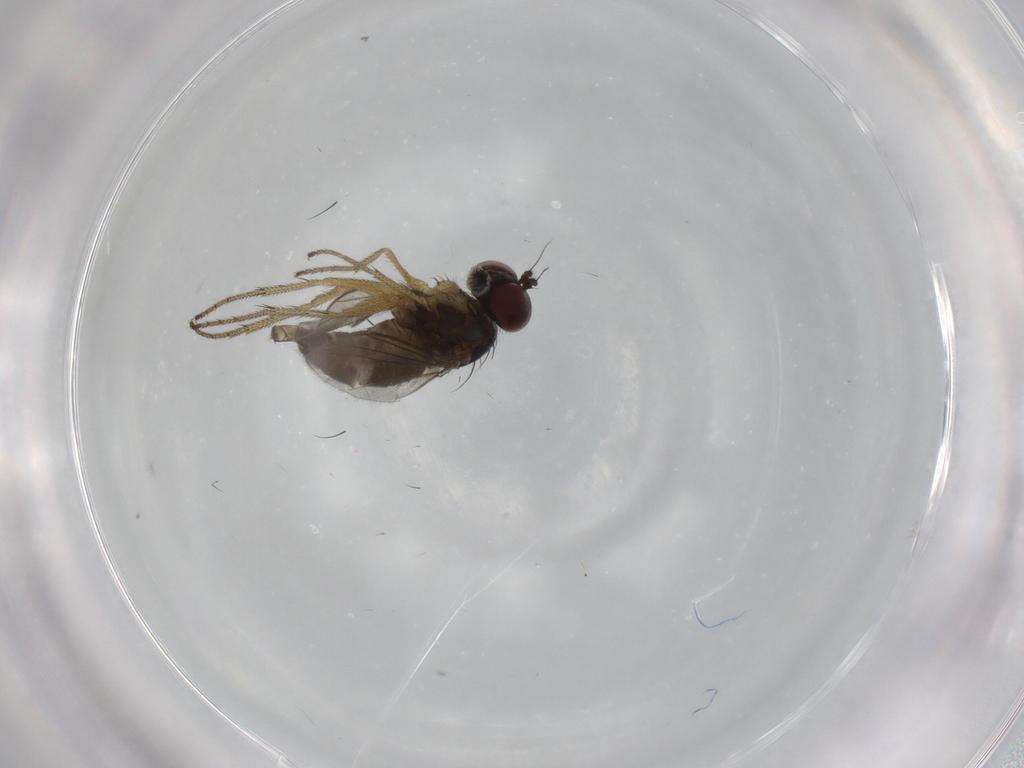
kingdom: Animalia
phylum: Arthropoda
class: Insecta
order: Diptera
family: Dolichopodidae
